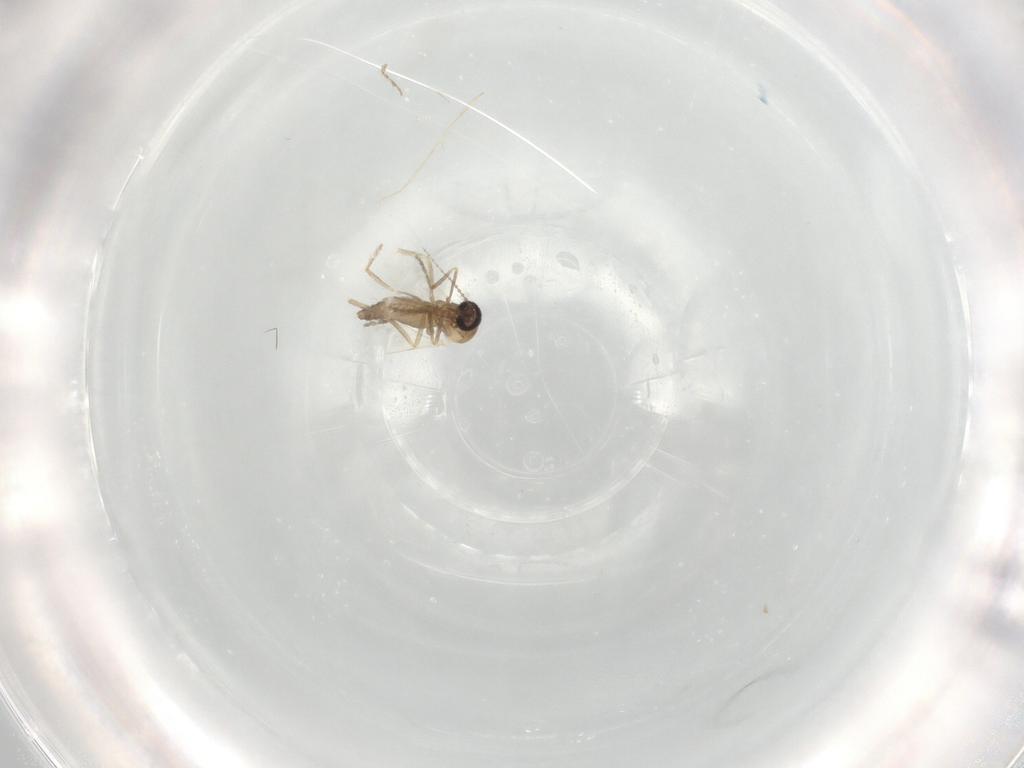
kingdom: Animalia
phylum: Arthropoda
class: Insecta
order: Diptera
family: Ceratopogonidae
